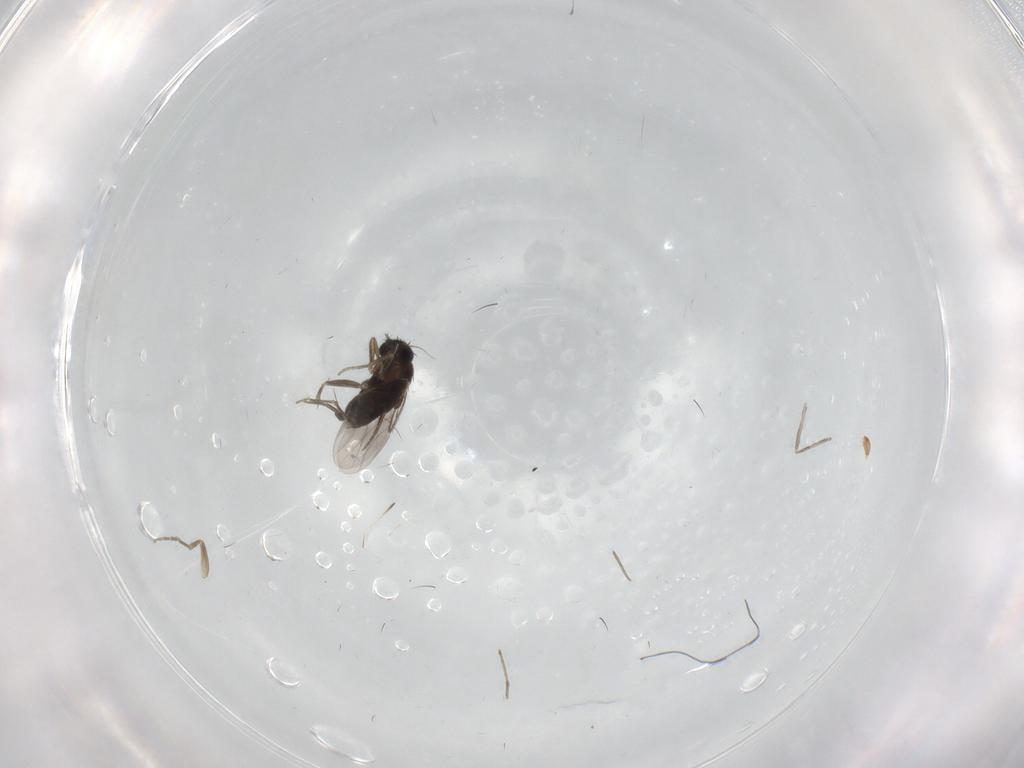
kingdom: Animalia
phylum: Arthropoda
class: Insecta
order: Diptera
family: Phoridae
